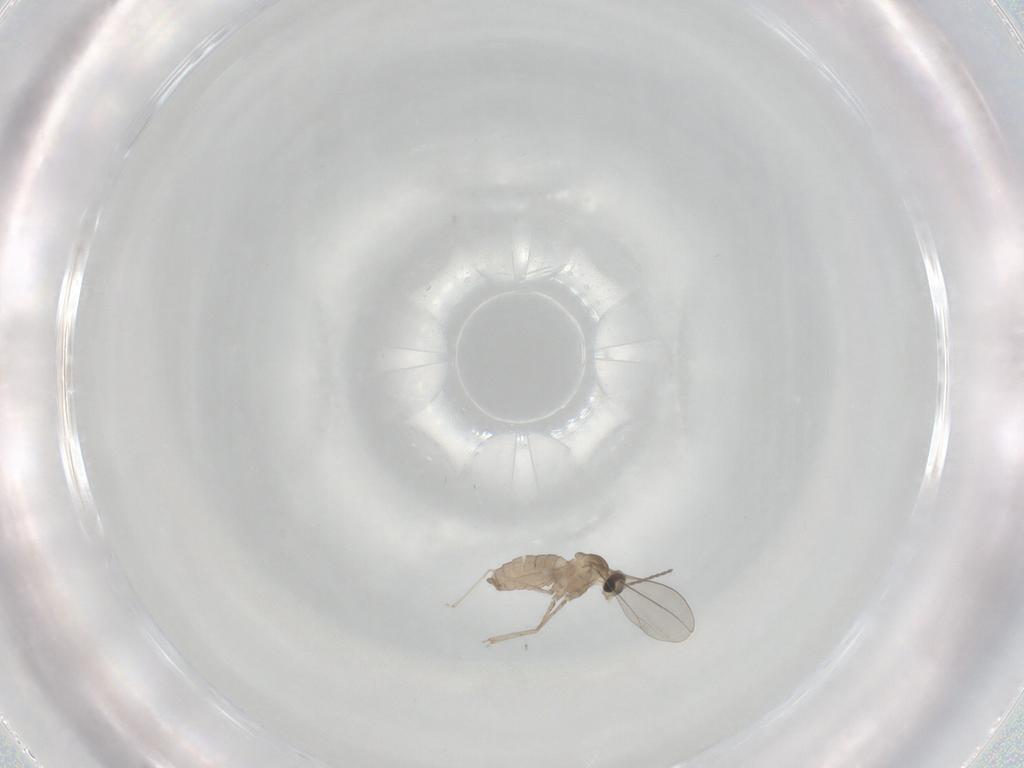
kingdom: Animalia
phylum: Arthropoda
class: Insecta
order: Diptera
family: Cecidomyiidae
